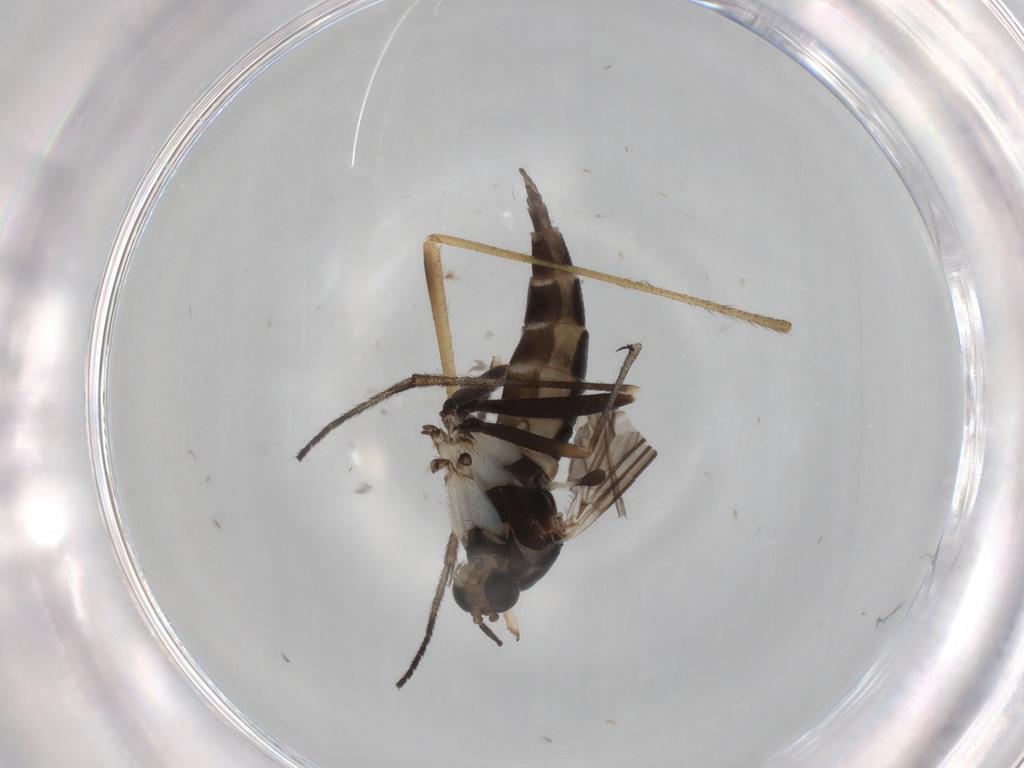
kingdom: Animalia
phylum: Arthropoda
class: Insecta
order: Diptera
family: Sciaridae
